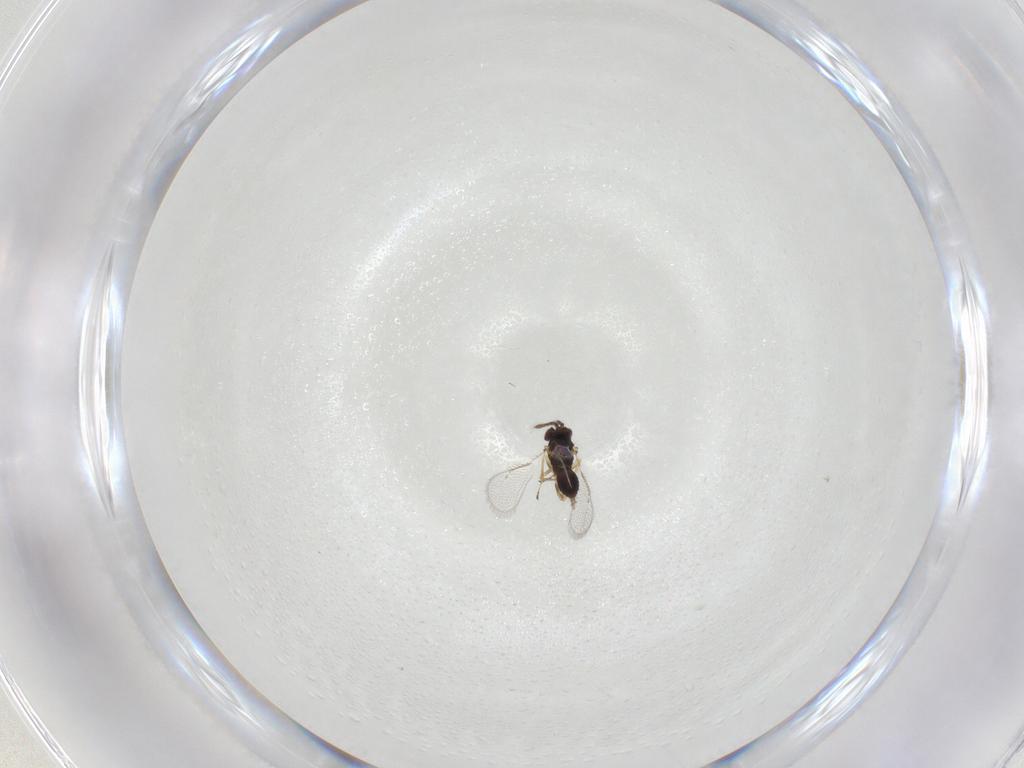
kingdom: Animalia
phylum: Arthropoda
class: Insecta
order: Hymenoptera
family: Eulophidae
